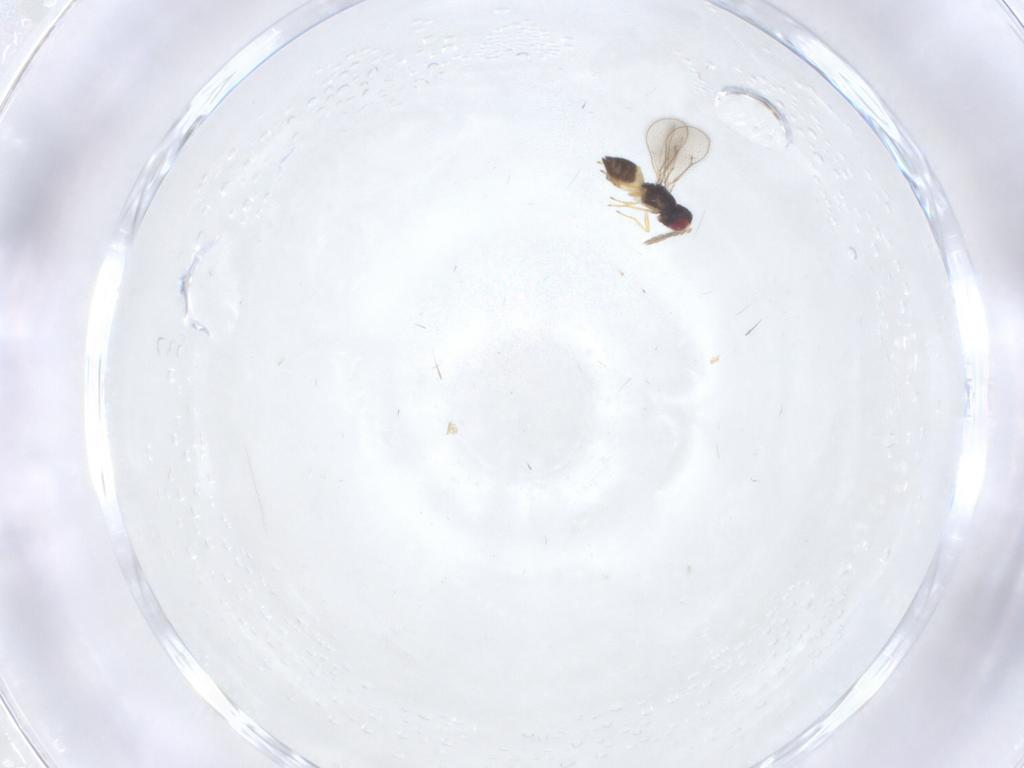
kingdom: Animalia
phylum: Arthropoda
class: Insecta
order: Hymenoptera
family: Eulophidae
